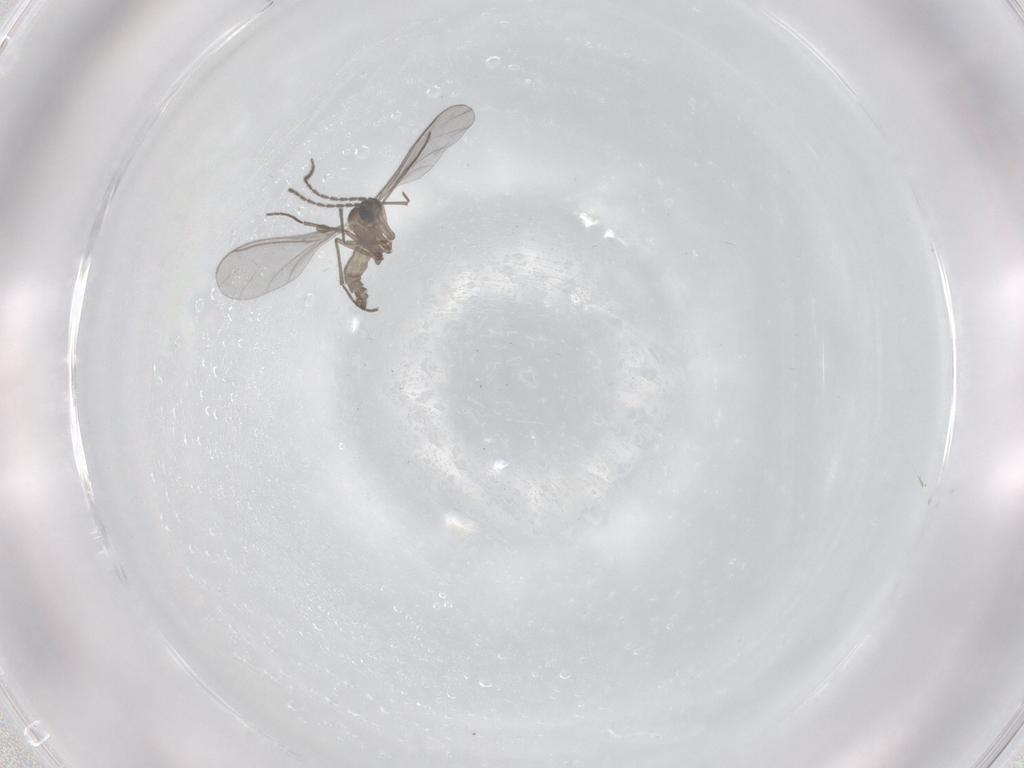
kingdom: Animalia
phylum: Arthropoda
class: Insecta
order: Diptera
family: Sciaridae
